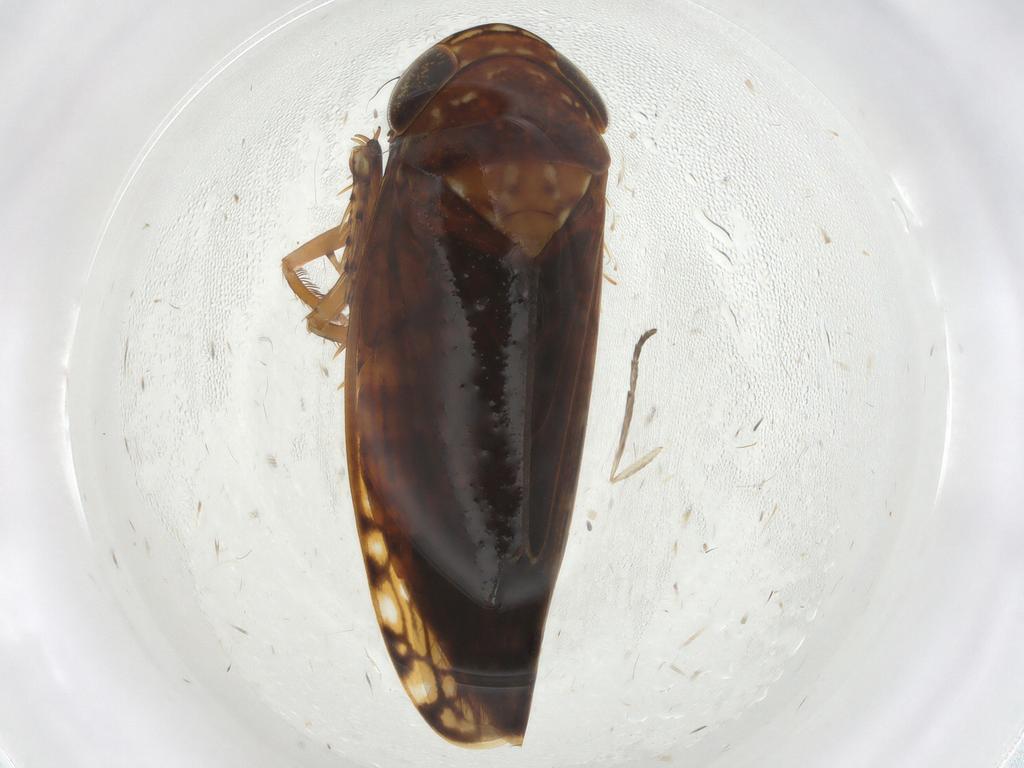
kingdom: Animalia
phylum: Arthropoda
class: Insecta
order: Hemiptera
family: Cicadellidae
